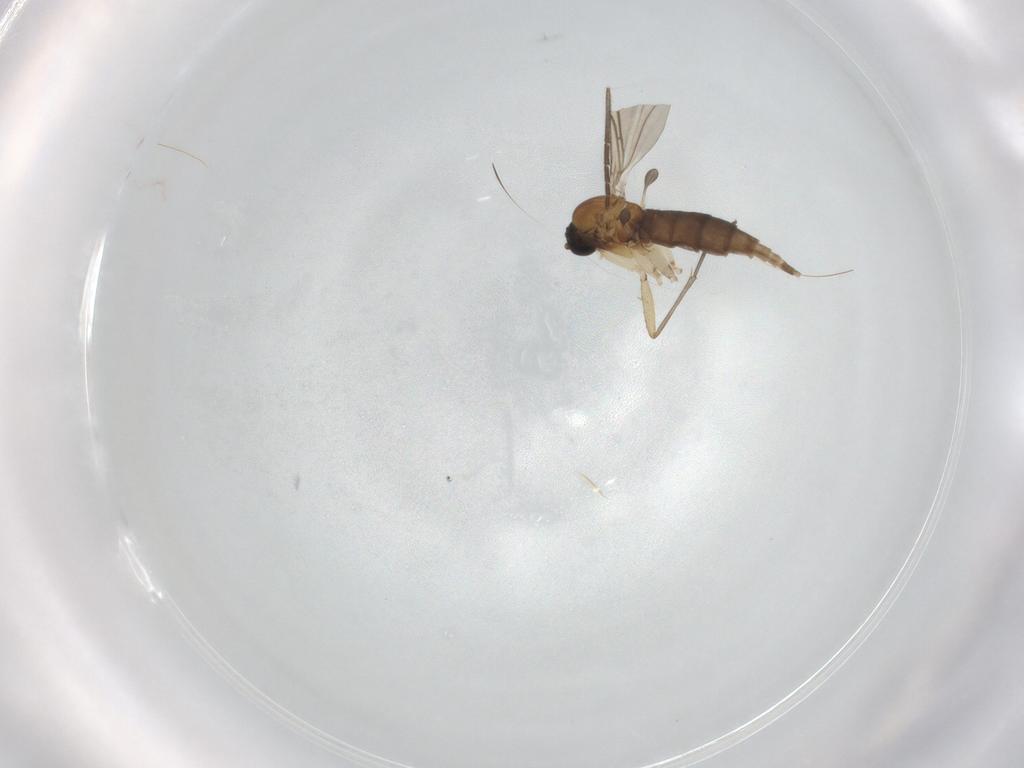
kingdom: Animalia
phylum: Arthropoda
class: Insecta
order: Diptera
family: Sciaridae
